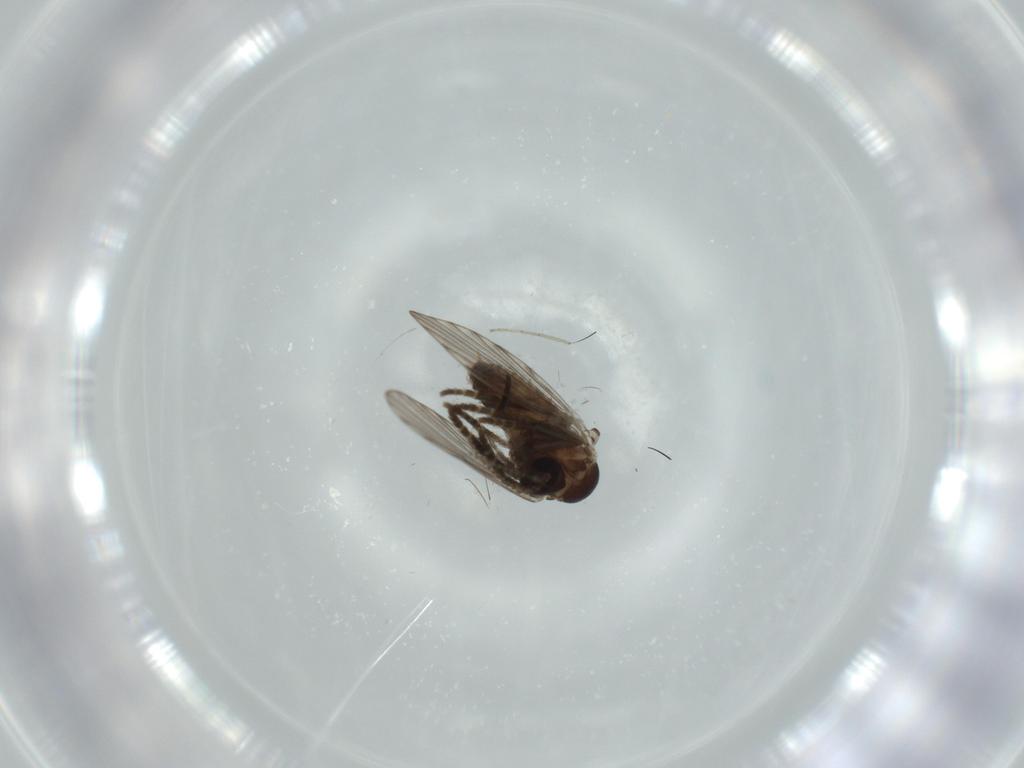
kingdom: Animalia
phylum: Arthropoda
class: Insecta
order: Diptera
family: Psychodidae
